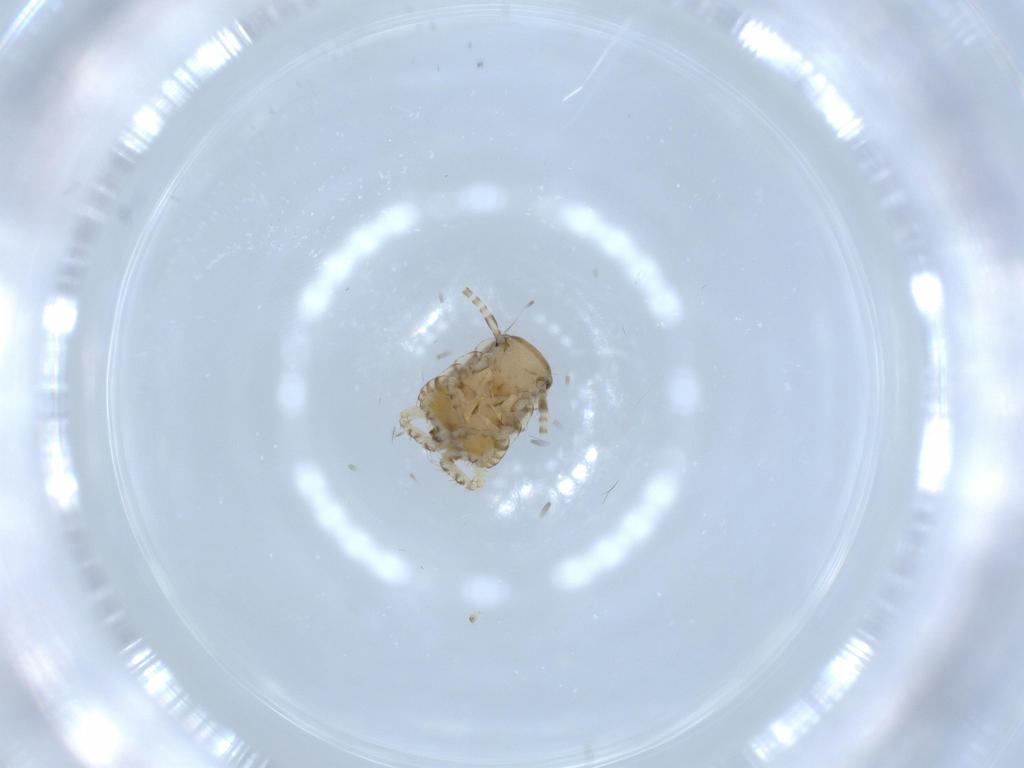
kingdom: Animalia
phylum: Arthropoda
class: Insecta
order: Blattodea
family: Ectobiidae
